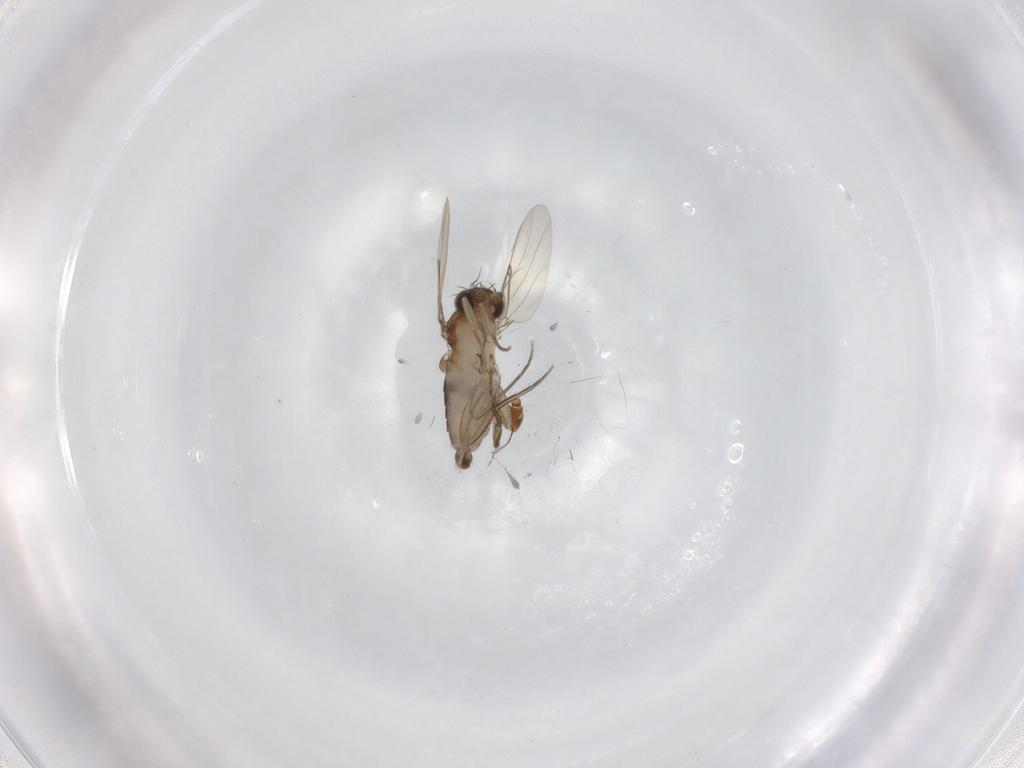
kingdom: Animalia
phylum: Arthropoda
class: Insecta
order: Diptera
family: Phoridae
